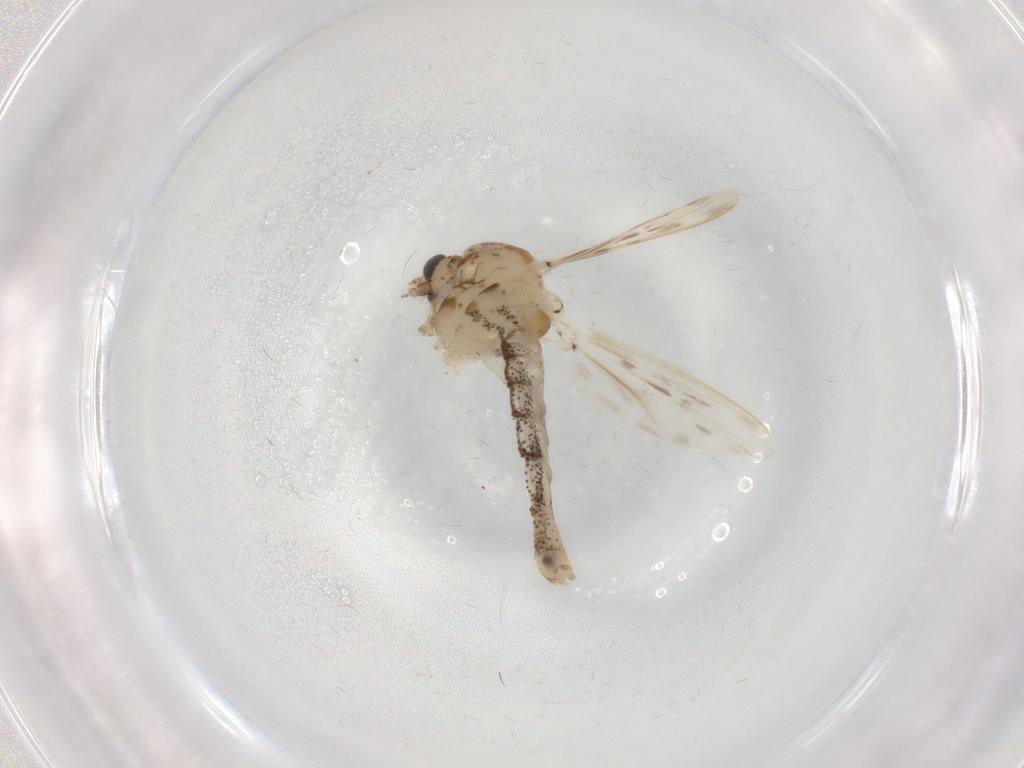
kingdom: Animalia
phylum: Arthropoda
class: Insecta
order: Diptera
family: Chaoboridae
